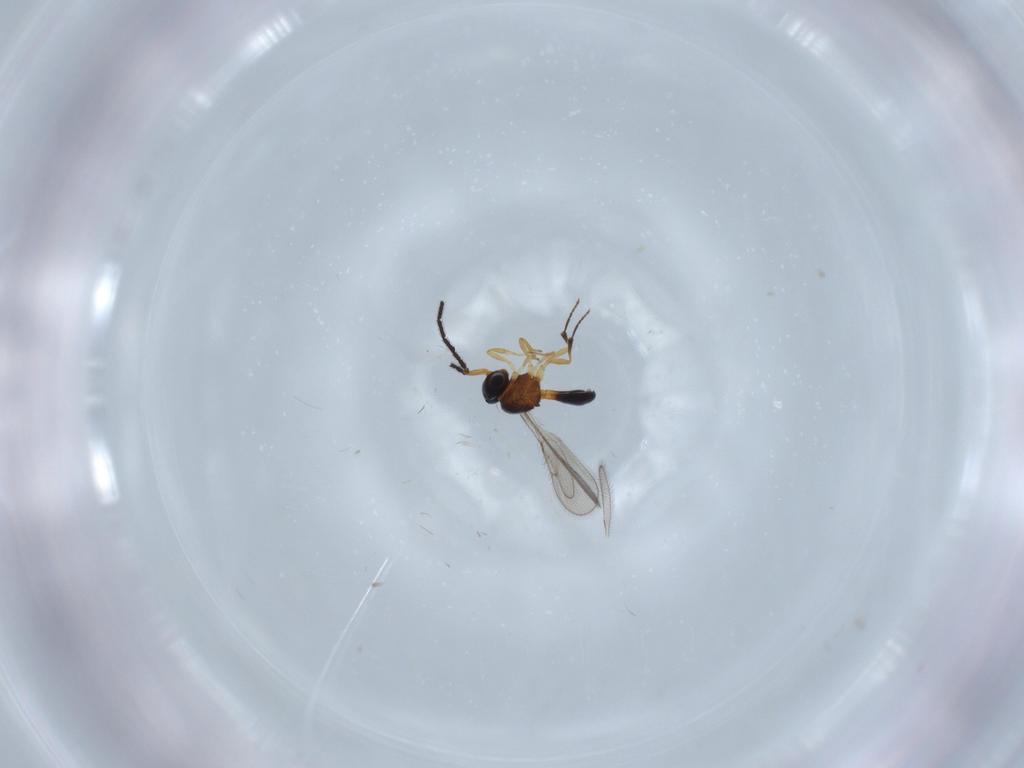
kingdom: Animalia
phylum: Arthropoda
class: Insecta
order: Hymenoptera
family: Scelionidae
